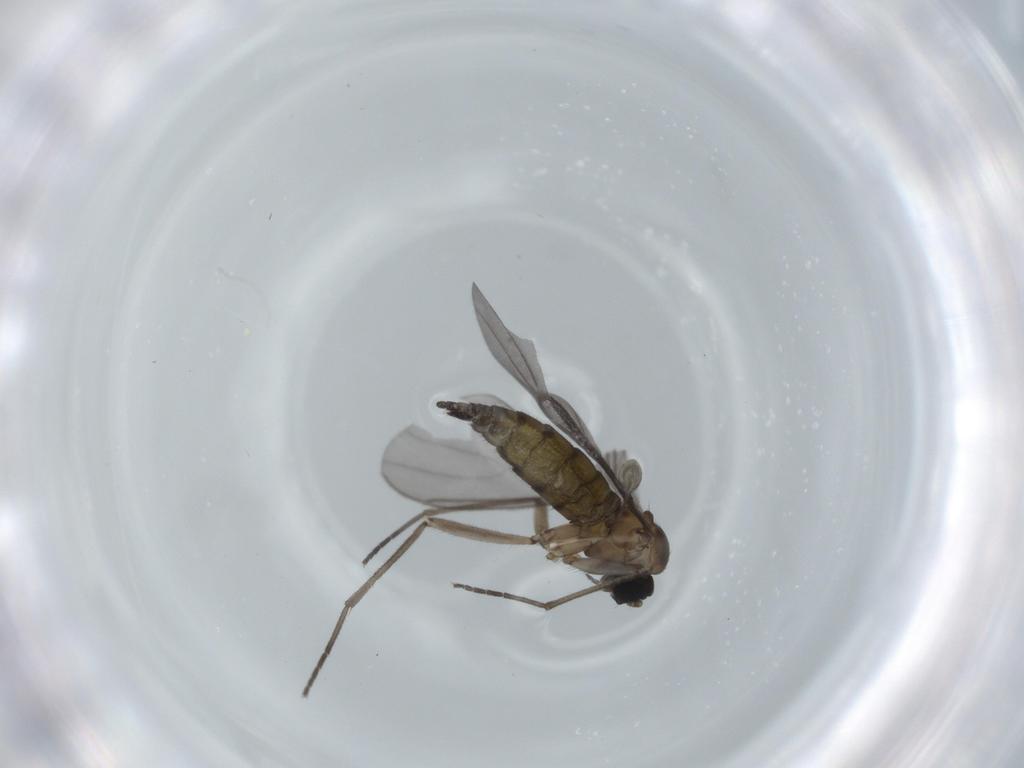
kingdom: Animalia
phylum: Arthropoda
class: Insecta
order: Diptera
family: Sciaridae
